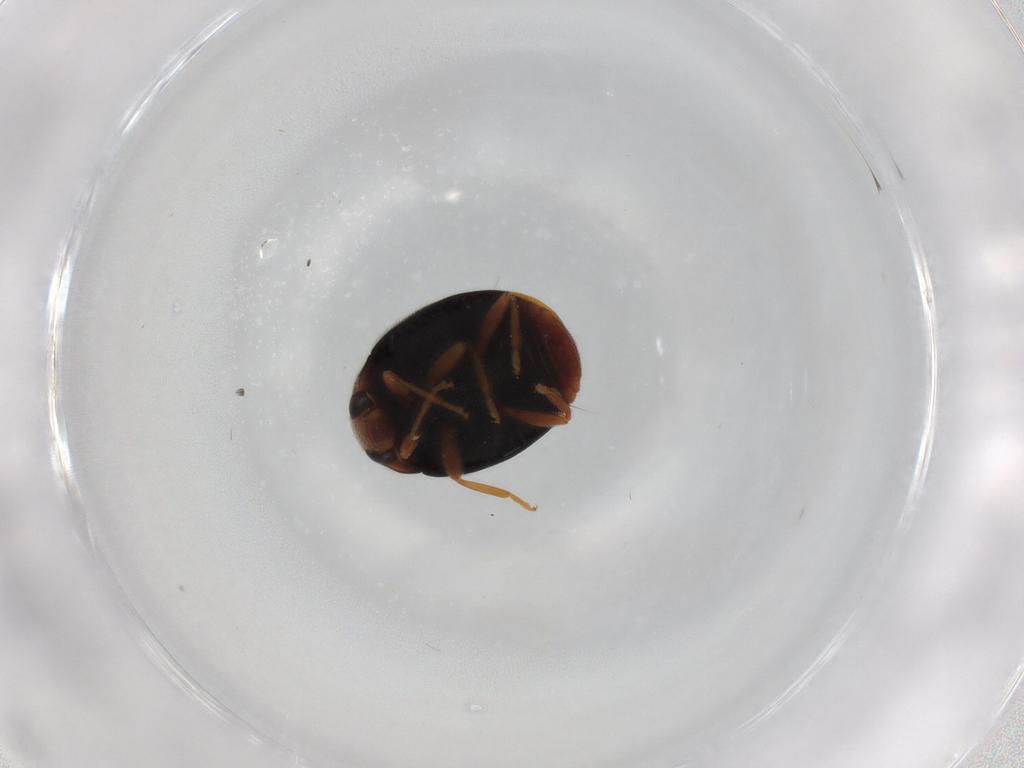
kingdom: Animalia
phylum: Arthropoda
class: Insecta
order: Coleoptera
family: Coccinellidae
